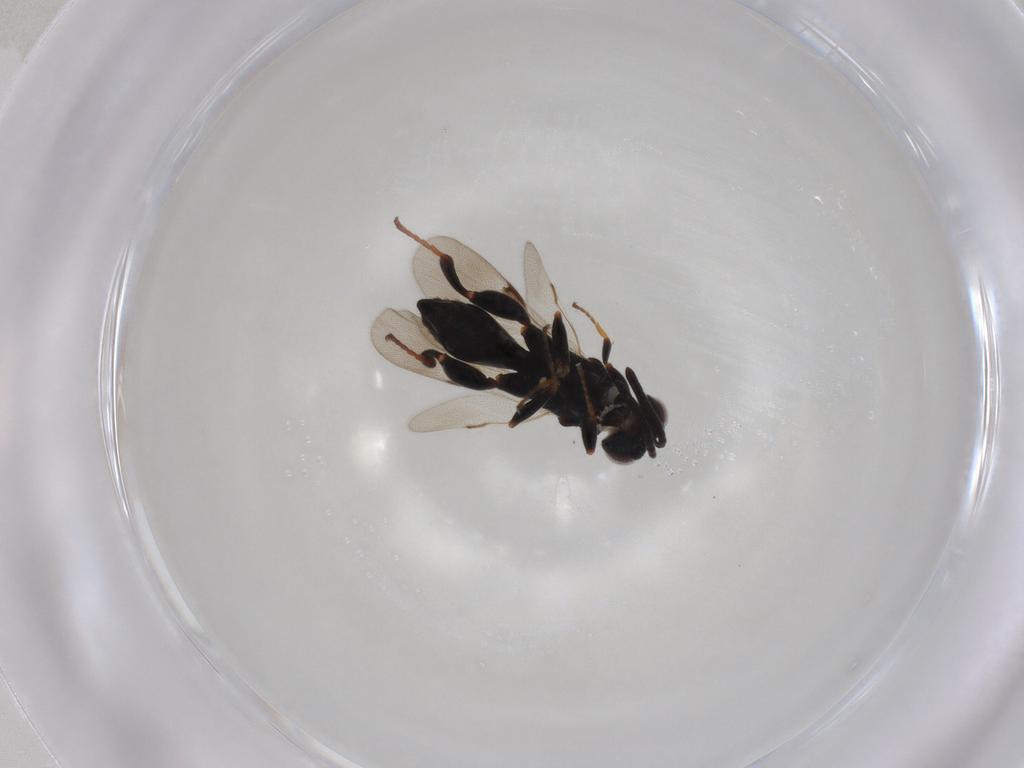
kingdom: Animalia
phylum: Arthropoda
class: Insecta
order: Hymenoptera
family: Chalcididae
